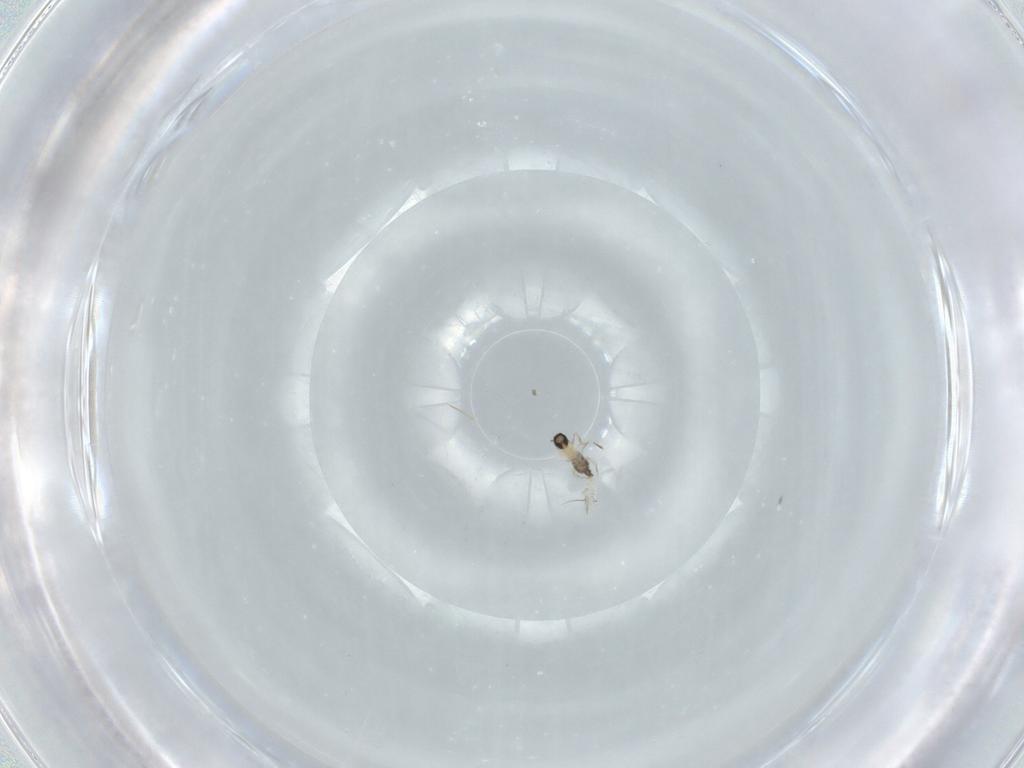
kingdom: Animalia
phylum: Arthropoda
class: Insecta
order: Diptera
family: Cecidomyiidae
